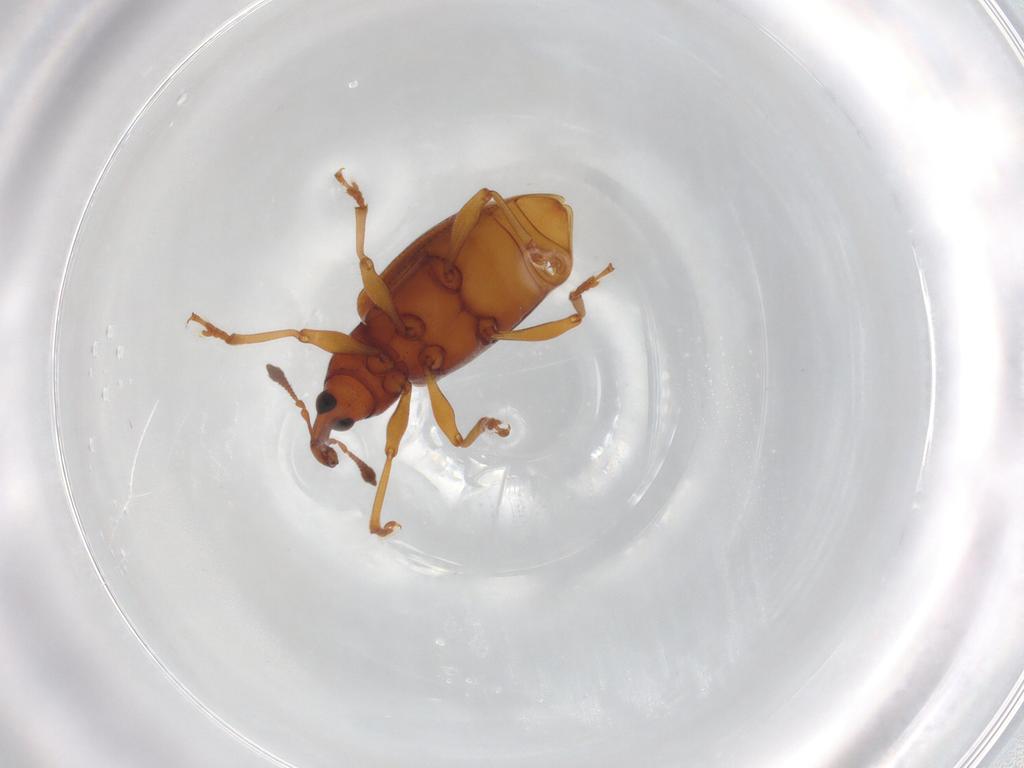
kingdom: Animalia
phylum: Arthropoda
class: Insecta
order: Coleoptera
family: Curculionidae
